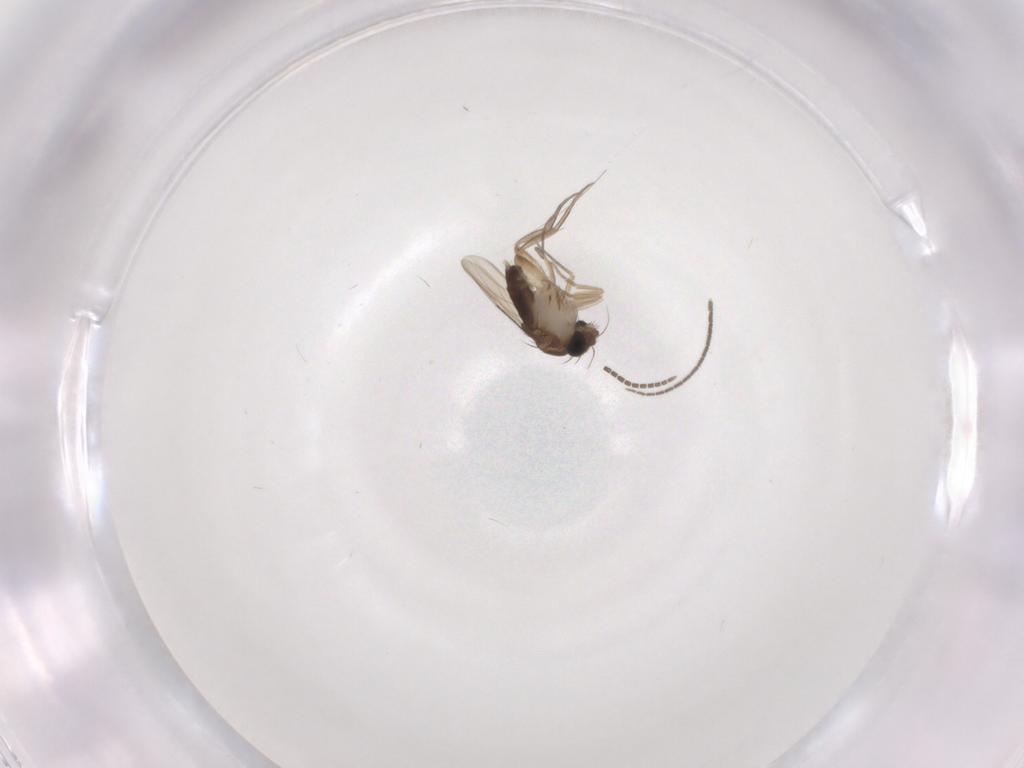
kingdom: Animalia
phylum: Arthropoda
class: Insecta
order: Diptera
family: Phoridae
